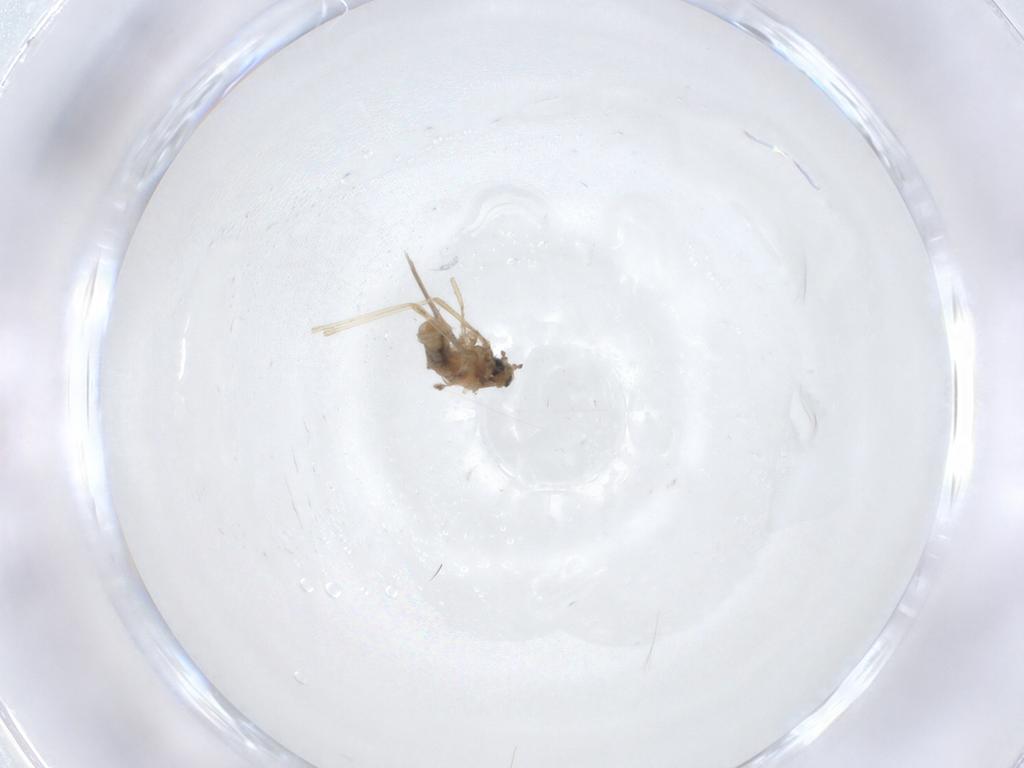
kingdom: Animalia
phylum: Arthropoda
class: Insecta
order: Diptera
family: Cecidomyiidae
